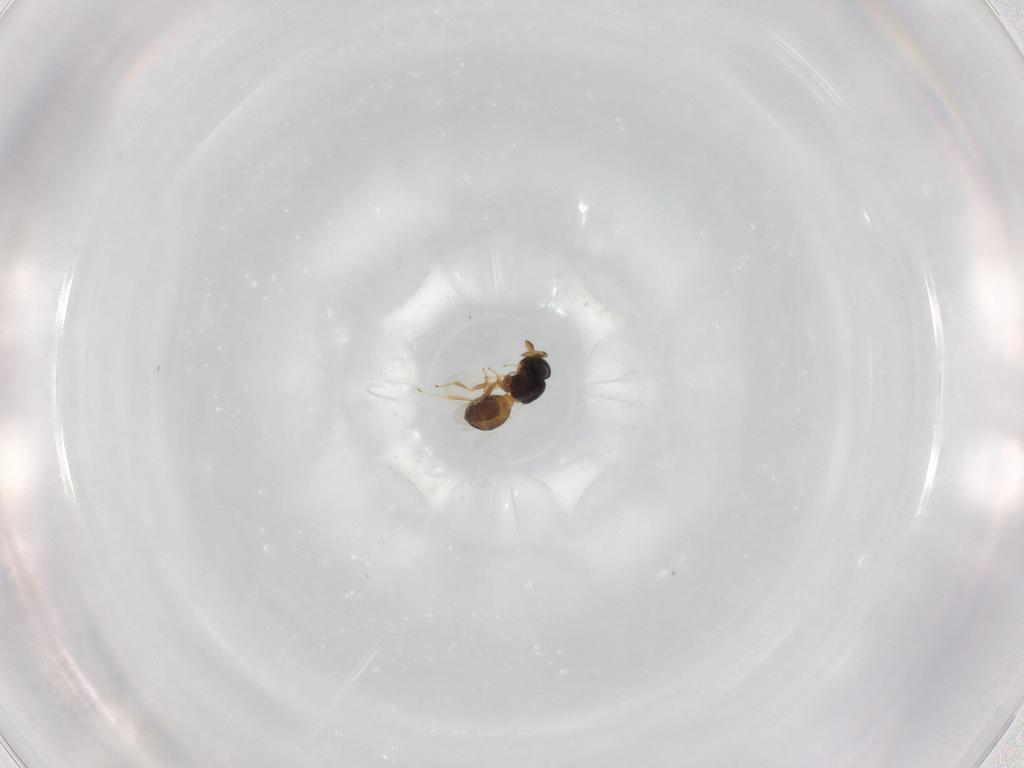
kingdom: Animalia
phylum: Arthropoda
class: Insecta
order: Hymenoptera
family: Scelionidae
